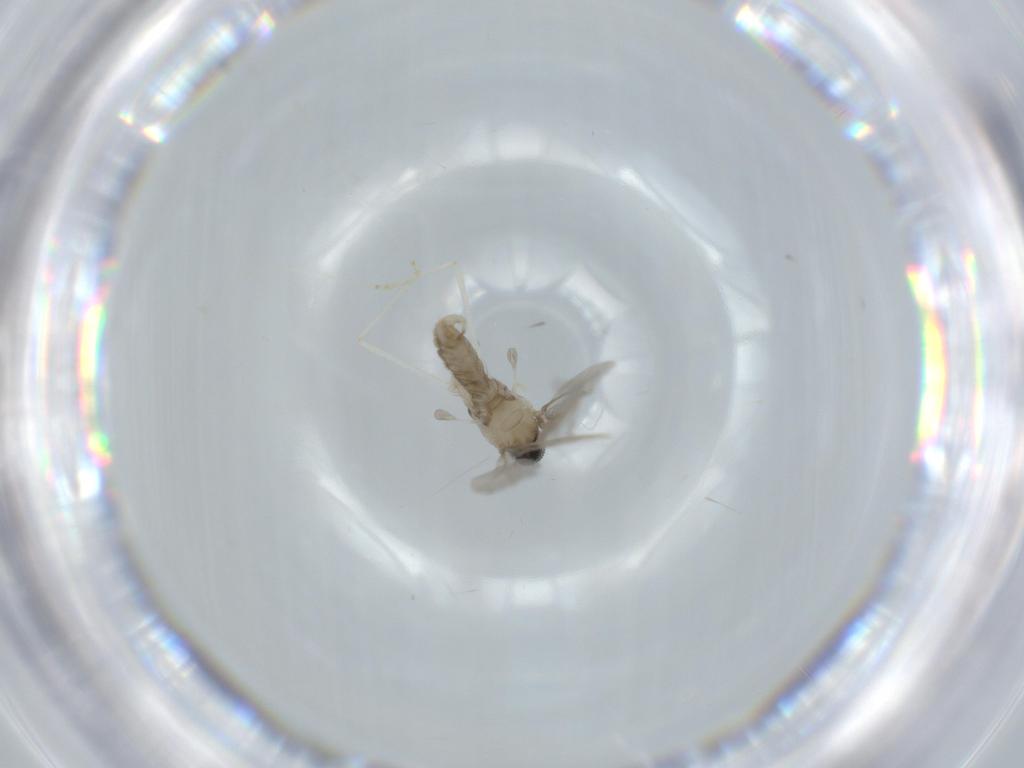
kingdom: Animalia
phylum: Arthropoda
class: Insecta
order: Diptera
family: Cecidomyiidae
